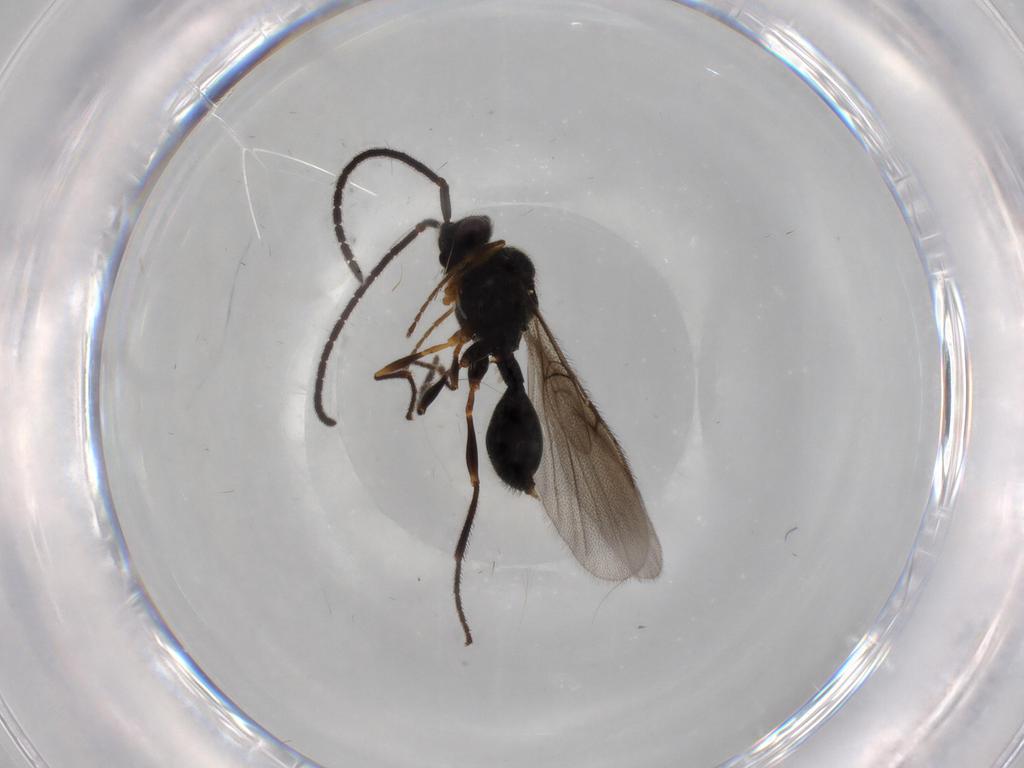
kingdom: Animalia
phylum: Arthropoda
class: Insecta
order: Hymenoptera
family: Diapriidae
